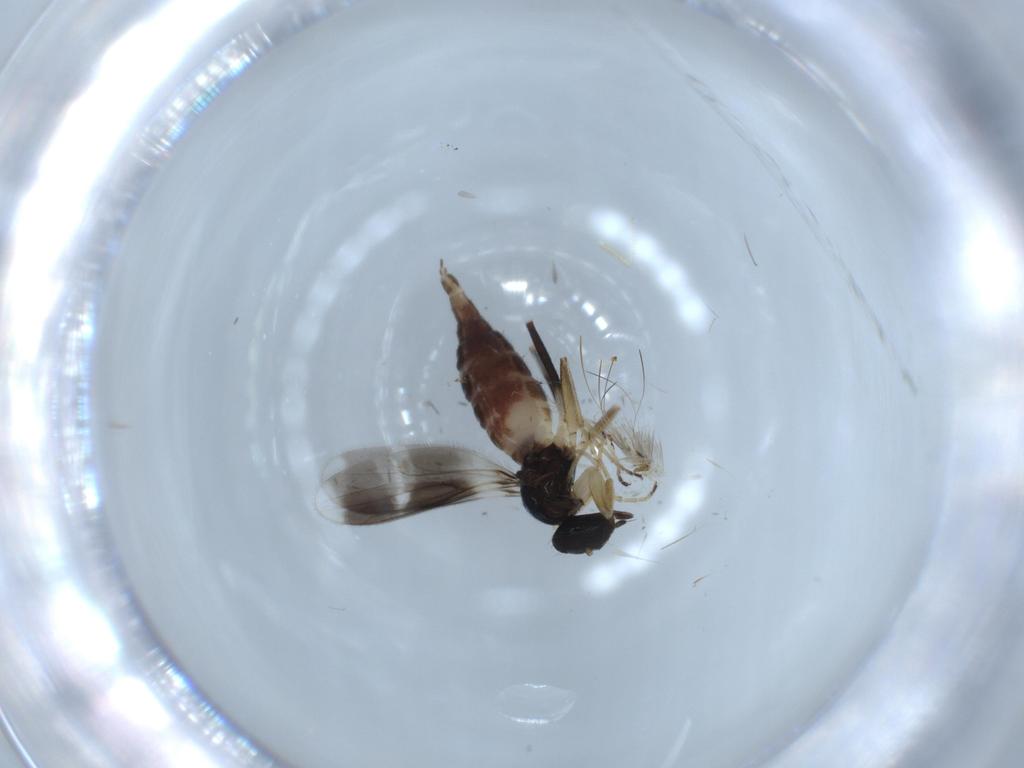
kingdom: Animalia
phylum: Arthropoda
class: Insecta
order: Diptera
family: Hybotidae
